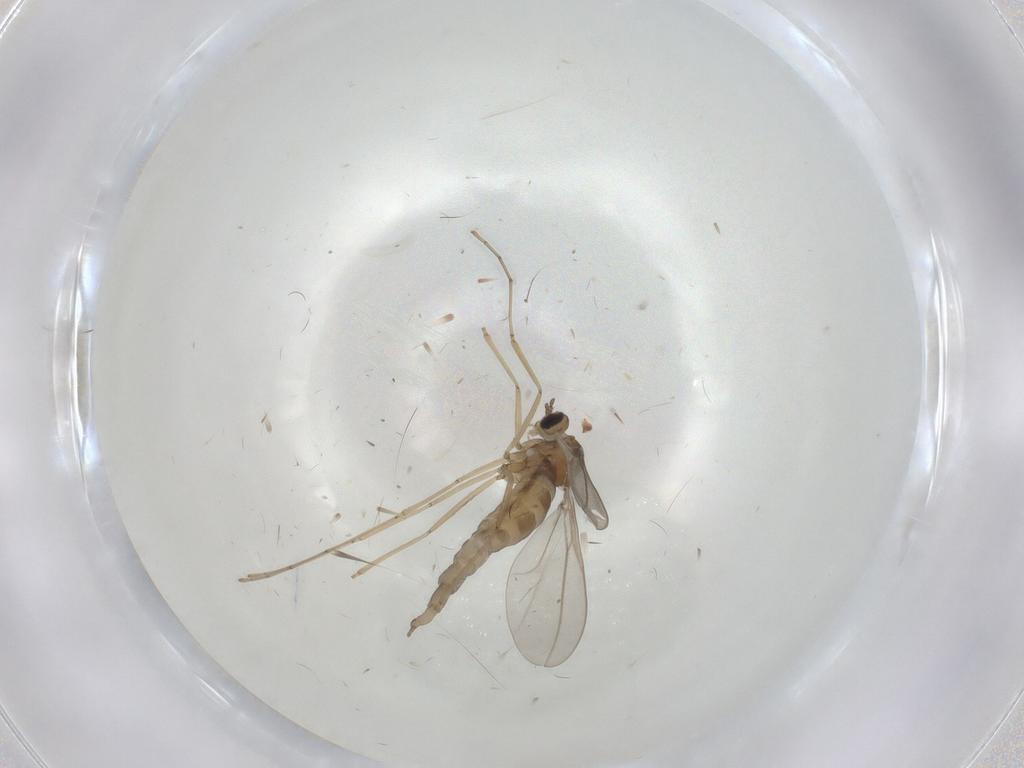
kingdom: Animalia
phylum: Arthropoda
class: Insecta
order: Diptera
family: Cecidomyiidae
